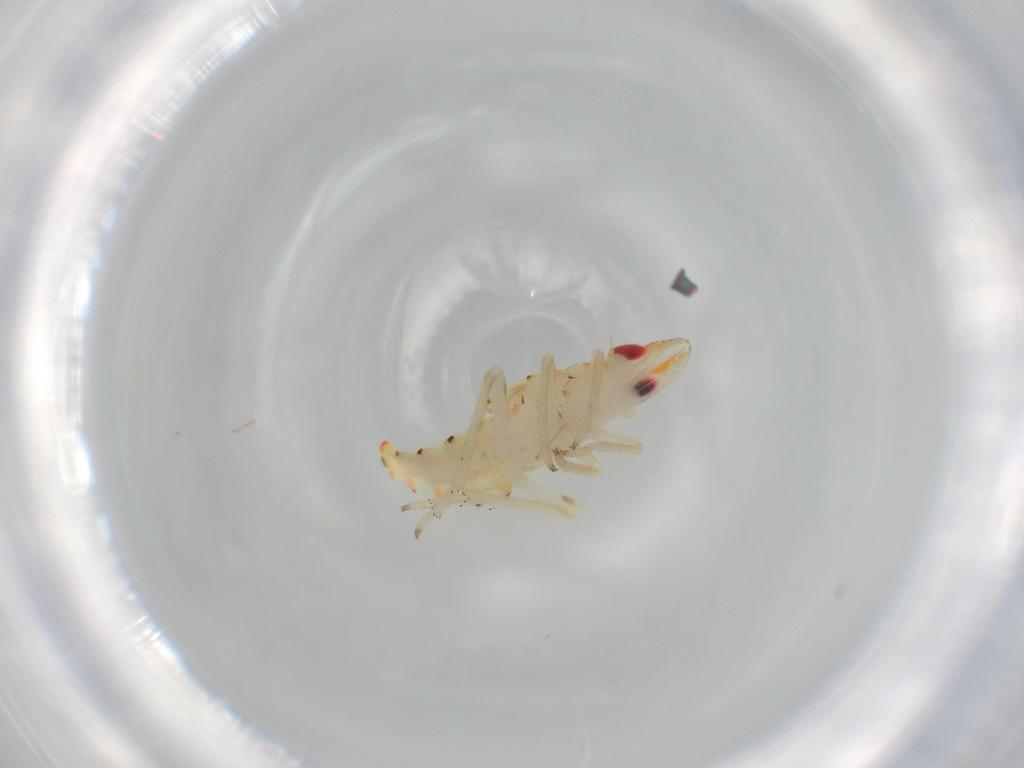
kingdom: Animalia
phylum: Arthropoda
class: Insecta
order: Hemiptera
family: Tropiduchidae
